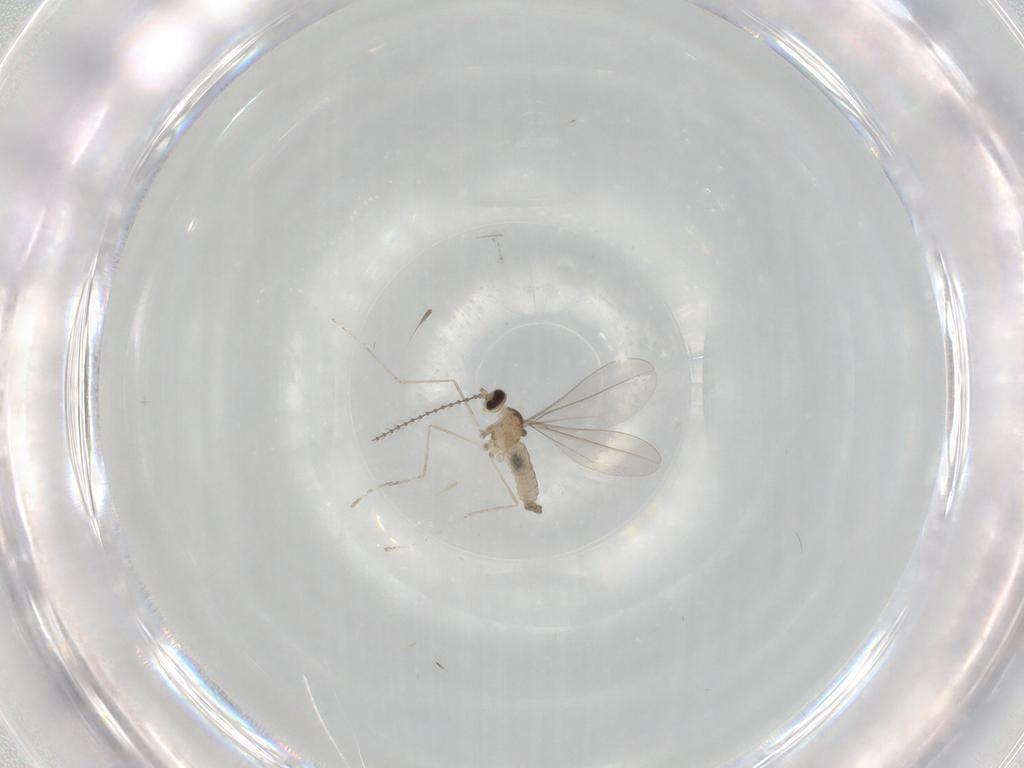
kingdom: Animalia
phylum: Arthropoda
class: Insecta
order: Diptera
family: Cecidomyiidae
